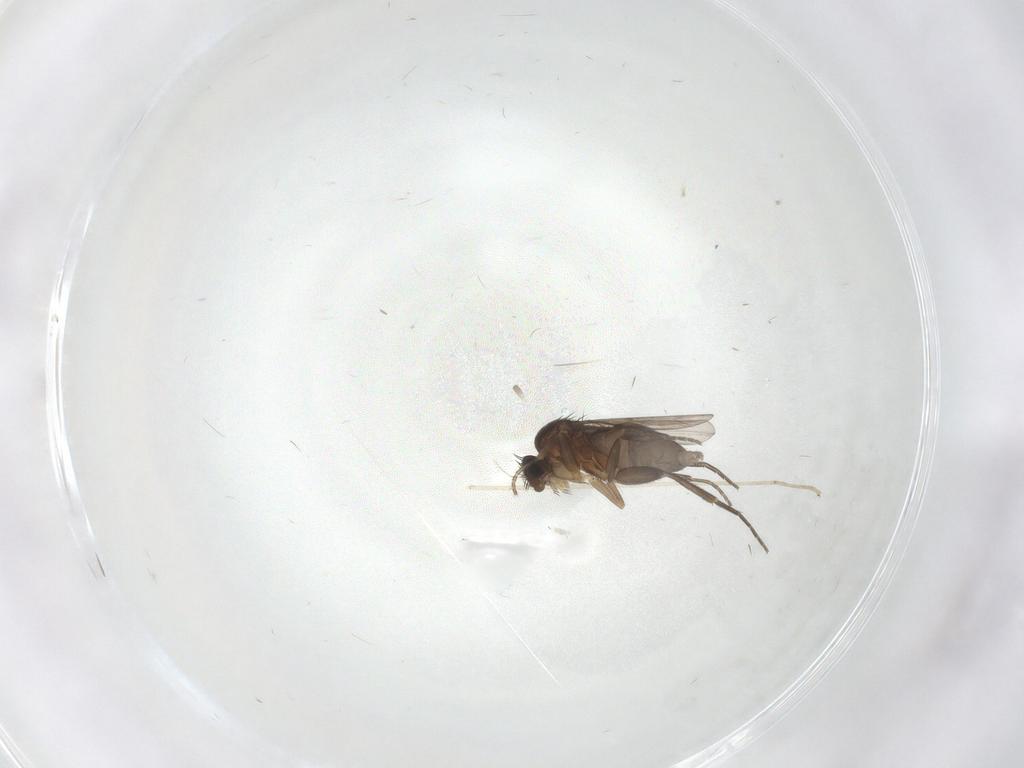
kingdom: Animalia
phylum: Arthropoda
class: Insecta
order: Diptera
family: Phoridae
